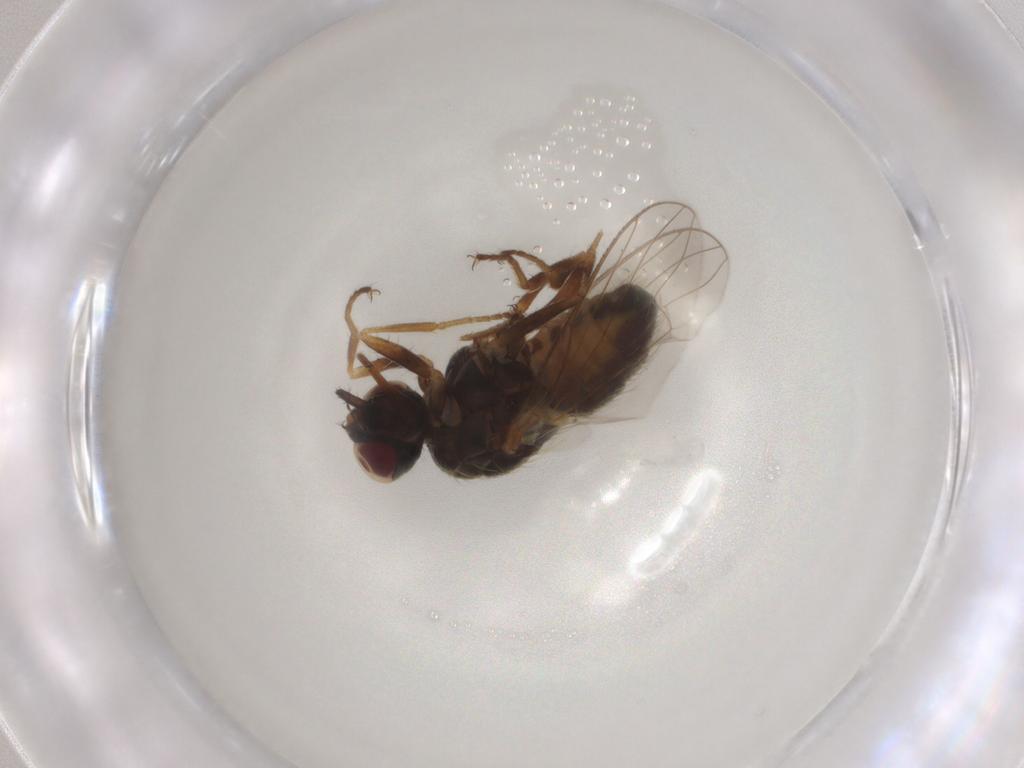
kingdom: Animalia
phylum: Arthropoda
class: Insecta
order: Diptera
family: Muscidae
